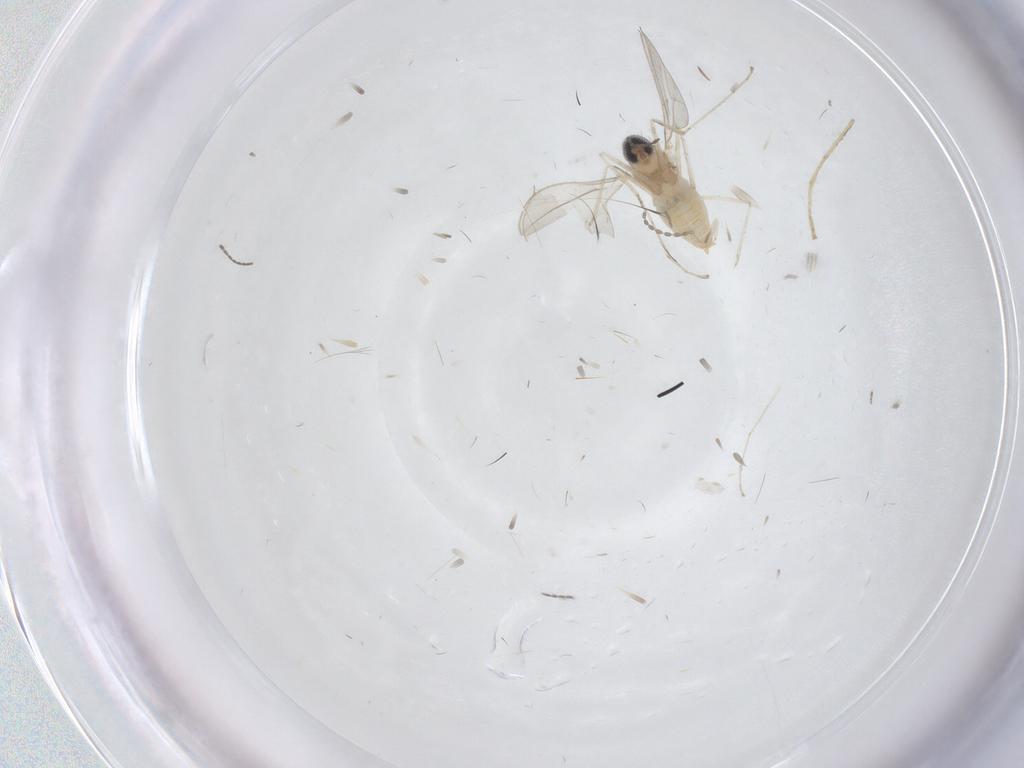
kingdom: Animalia
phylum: Arthropoda
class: Insecta
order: Diptera
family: Chironomidae
